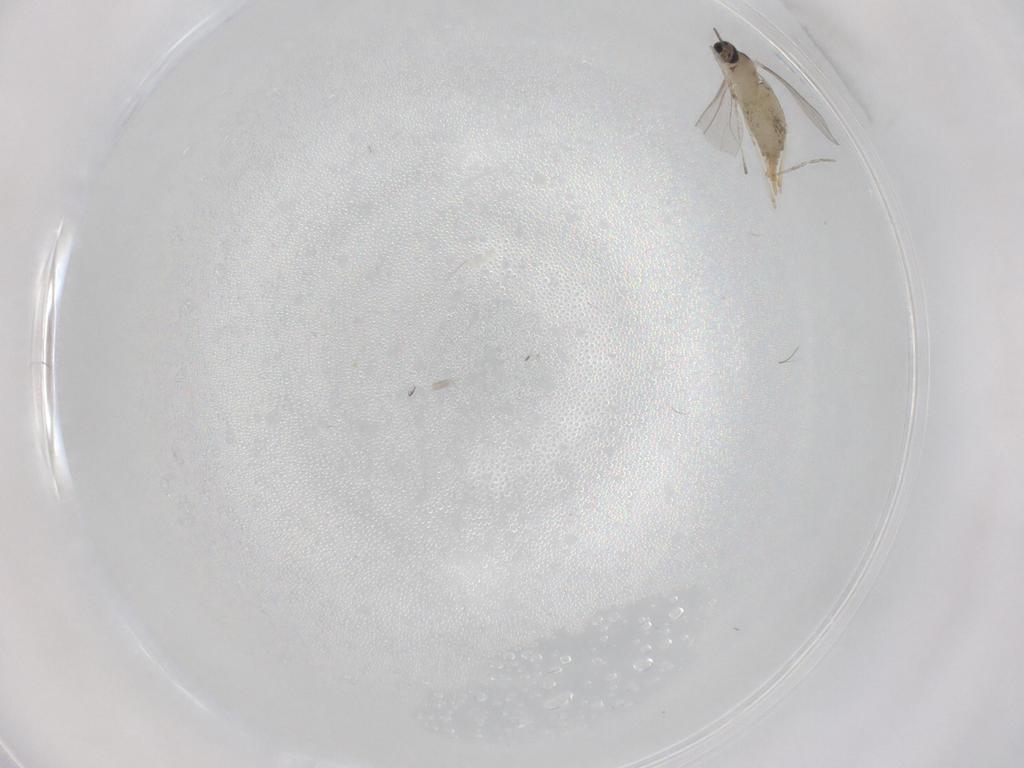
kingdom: Animalia
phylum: Arthropoda
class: Insecta
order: Diptera
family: Cecidomyiidae
